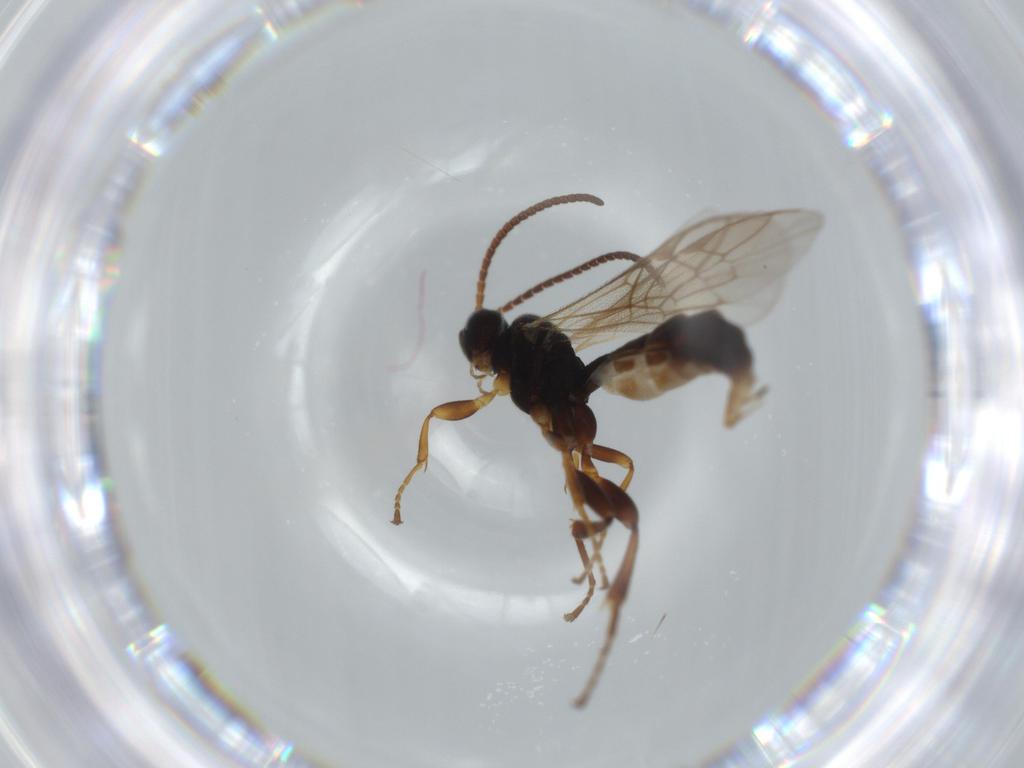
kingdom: Animalia
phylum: Arthropoda
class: Insecta
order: Hymenoptera
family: Ichneumonidae
